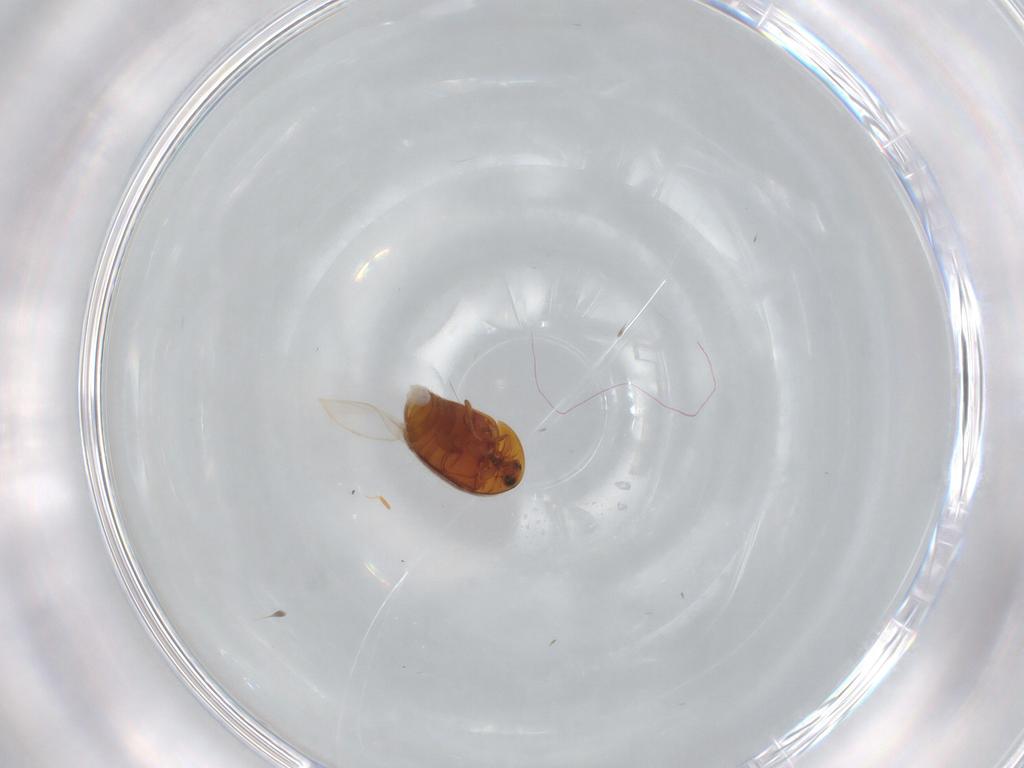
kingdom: Animalia
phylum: Arthropoda
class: Insecta
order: Coleoptera
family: Corylophidae
